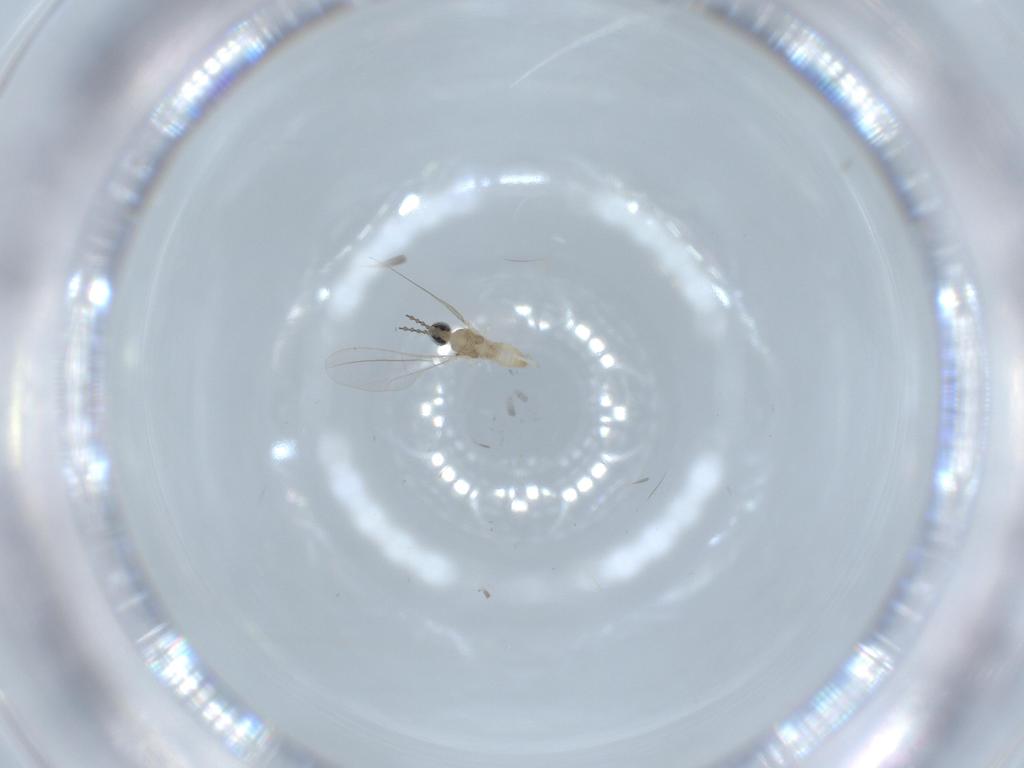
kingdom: Animalia
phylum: Arthropoda
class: Insecta
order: Diptera
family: Cecidomyiidae
